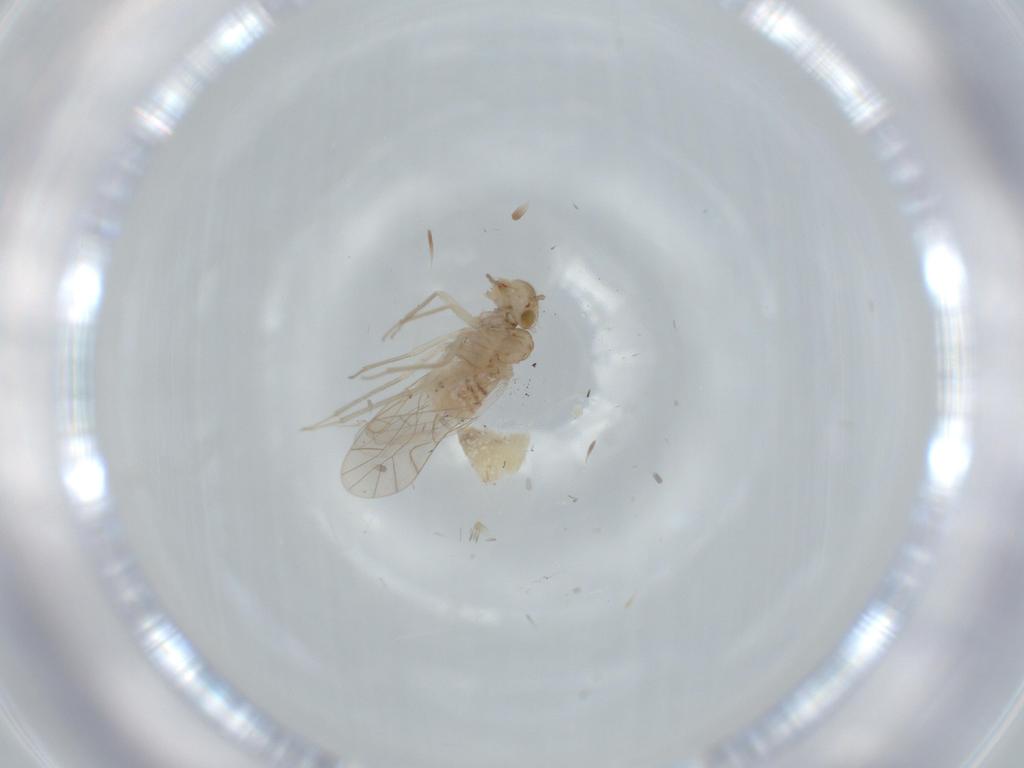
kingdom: Animalia
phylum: Arthropoda
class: Insecta
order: Psocodea
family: Lachesillidae
